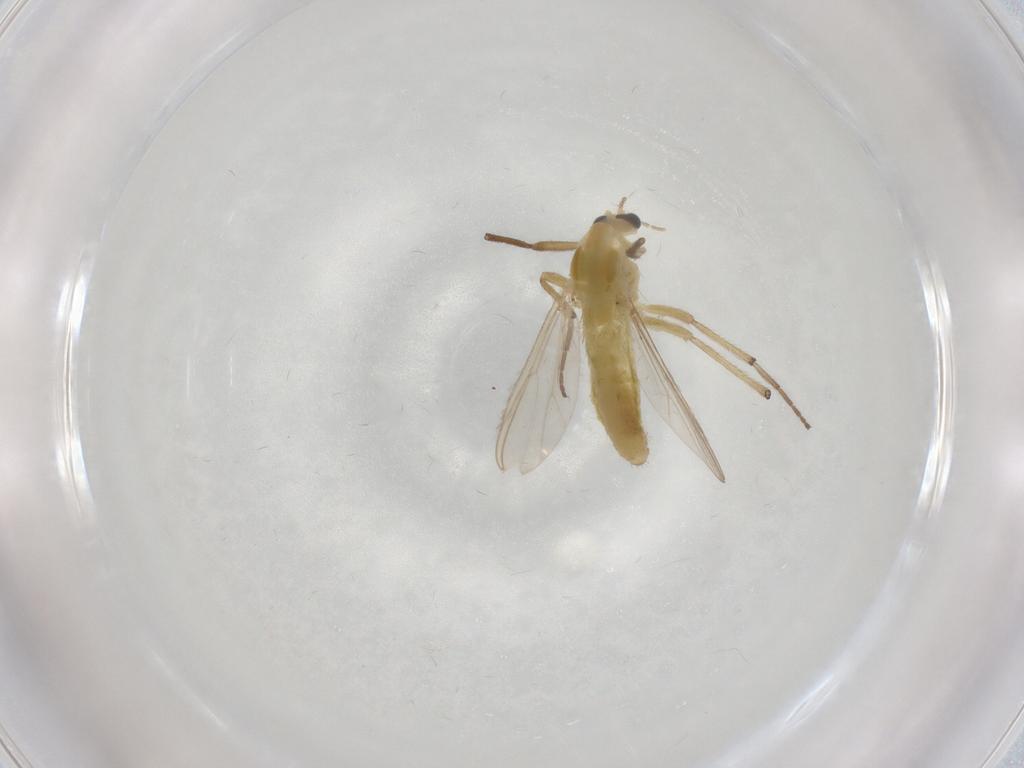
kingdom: Animalia
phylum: Arthropoda
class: Insecta
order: Diptera
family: Chironomidae
